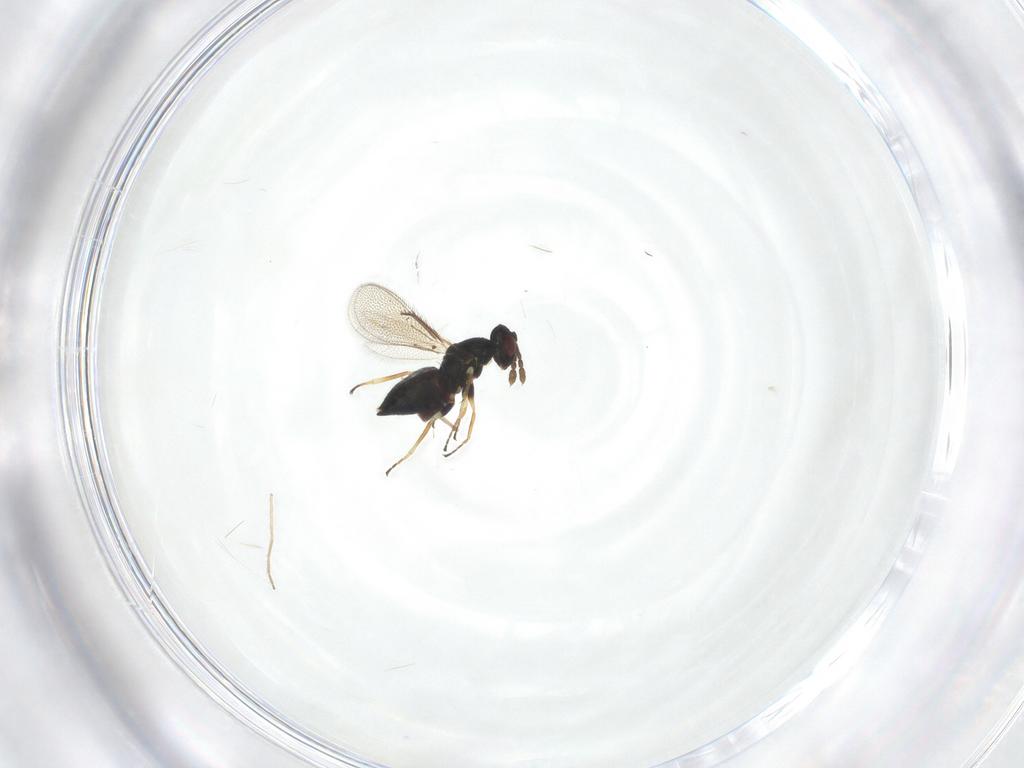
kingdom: Animalia
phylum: Arthropoda
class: Insecta
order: Hymenoptera
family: Eulophidae
